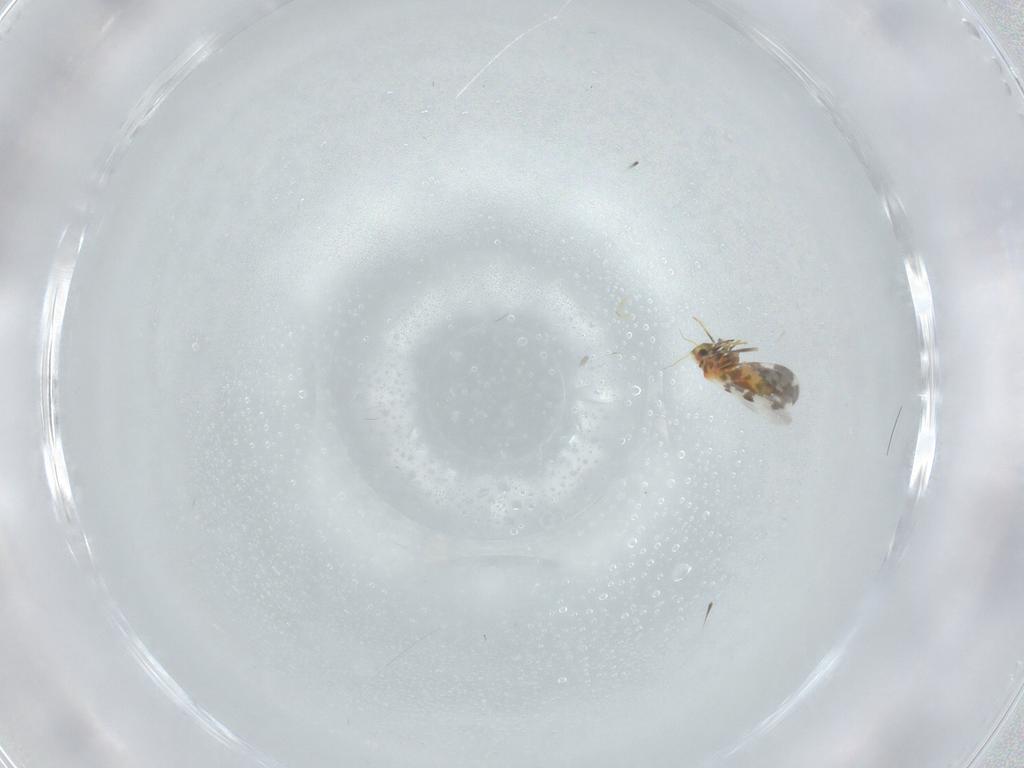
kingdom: Animalia
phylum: Arthropoda
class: Insecta
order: Hemiptera
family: Aleyrodidae
